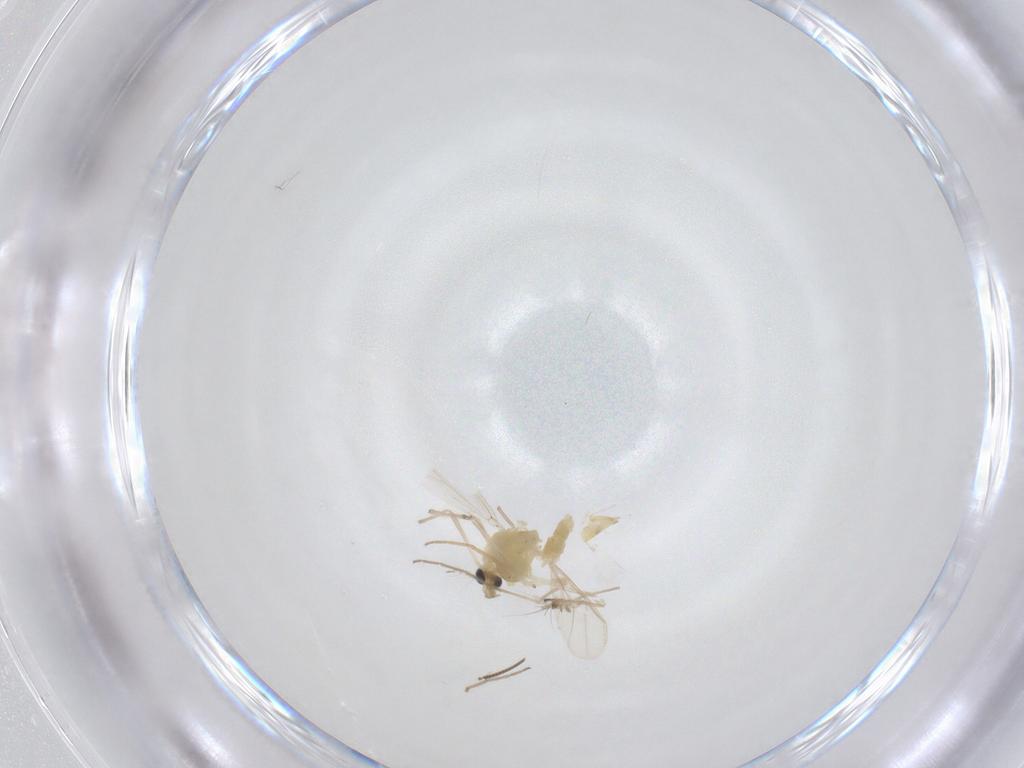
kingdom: Animalia
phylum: Arthropoda
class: Insecta
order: Diptera
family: Chironomidae
